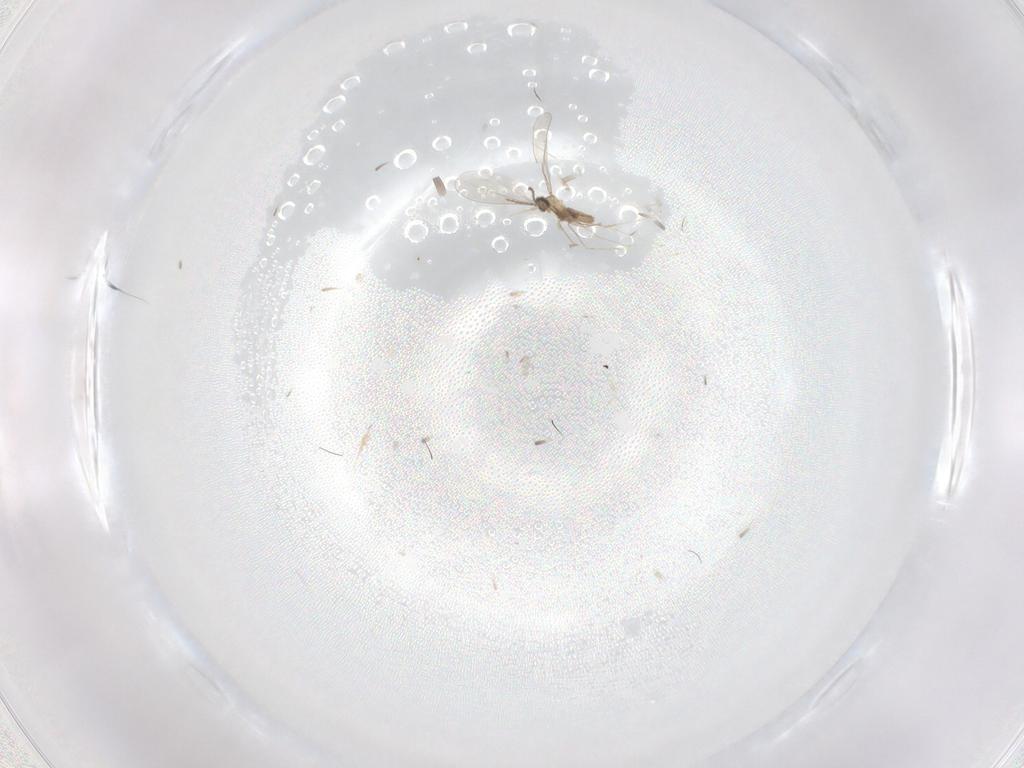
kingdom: Animalia
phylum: Arthropoda
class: Insecta
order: Diptera
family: Cecidomyiidae
